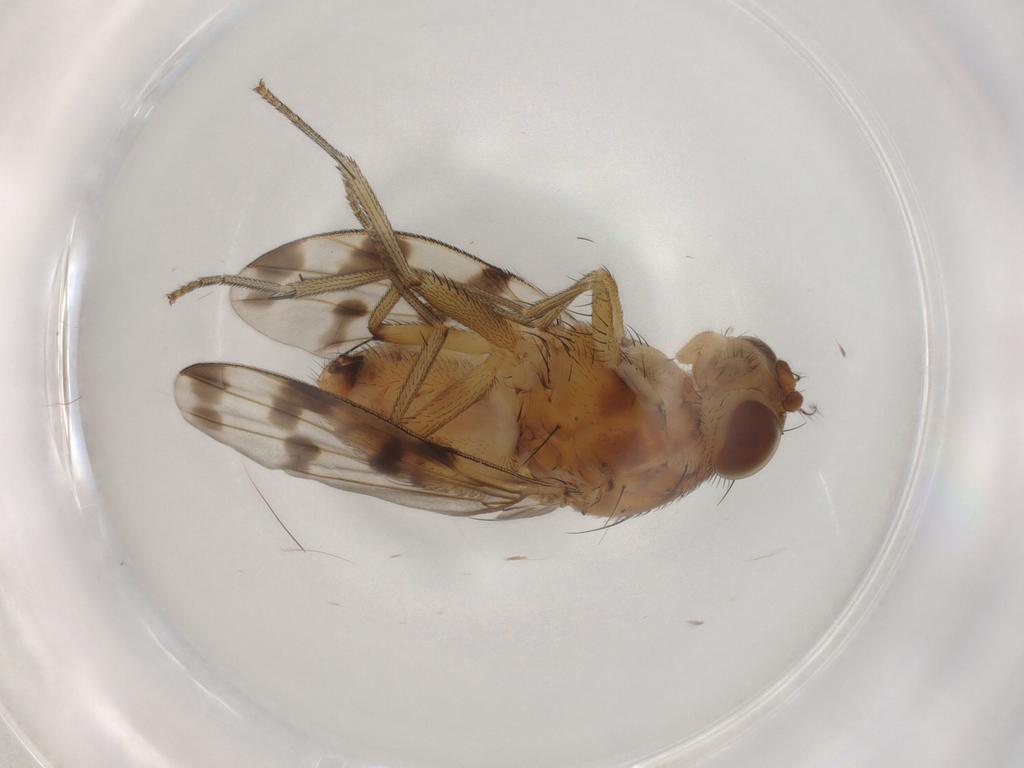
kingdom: Animalia
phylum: Arthropoda
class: Insecta
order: Diptera
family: Lauxaniidae
